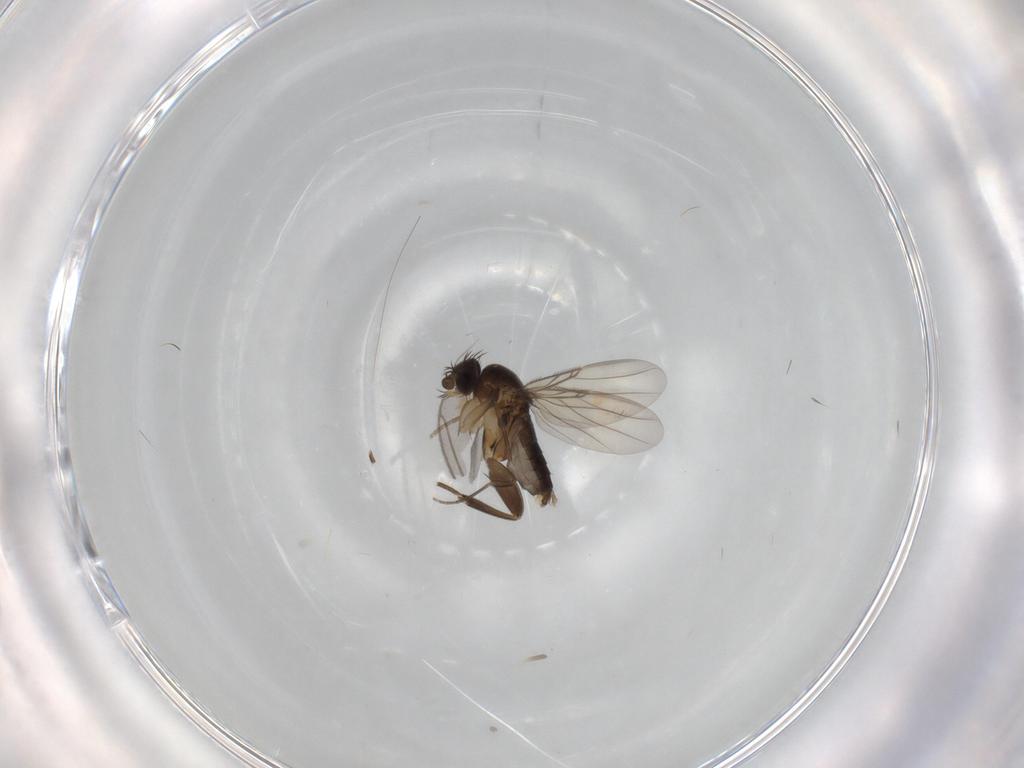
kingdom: Animalia
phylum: Arthropoda
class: Insecta
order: Diptera
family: Phoridae
